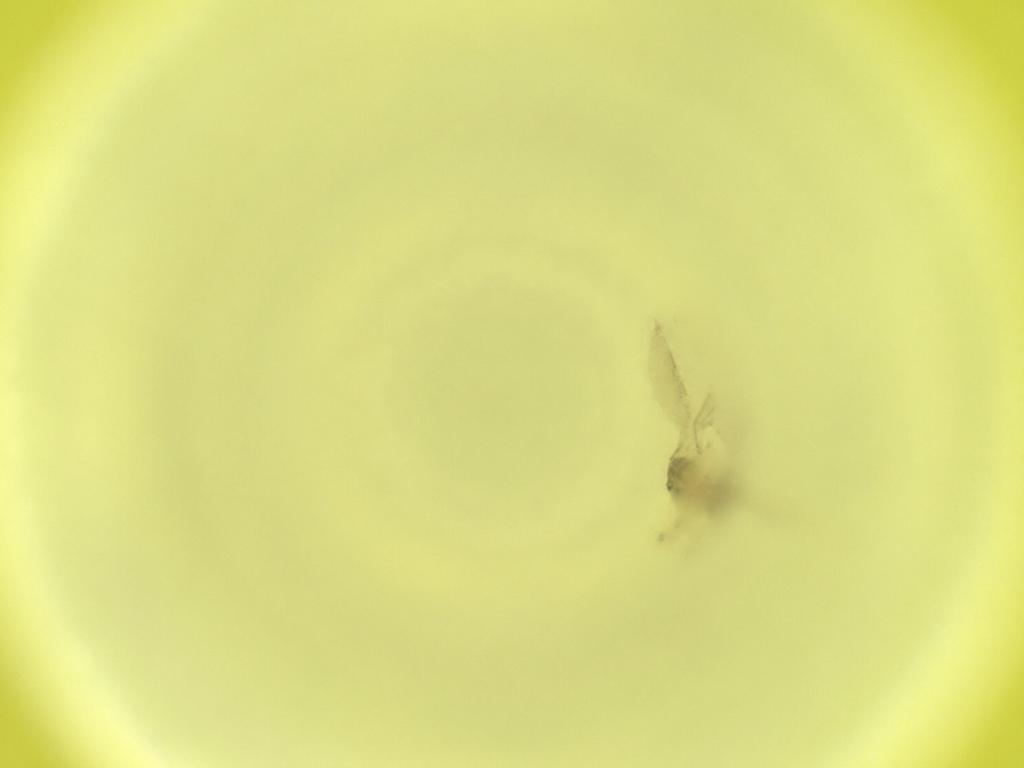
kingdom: Animalia
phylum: Arthropoda
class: Insecta
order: Diptera
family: Cecidomyiidae
